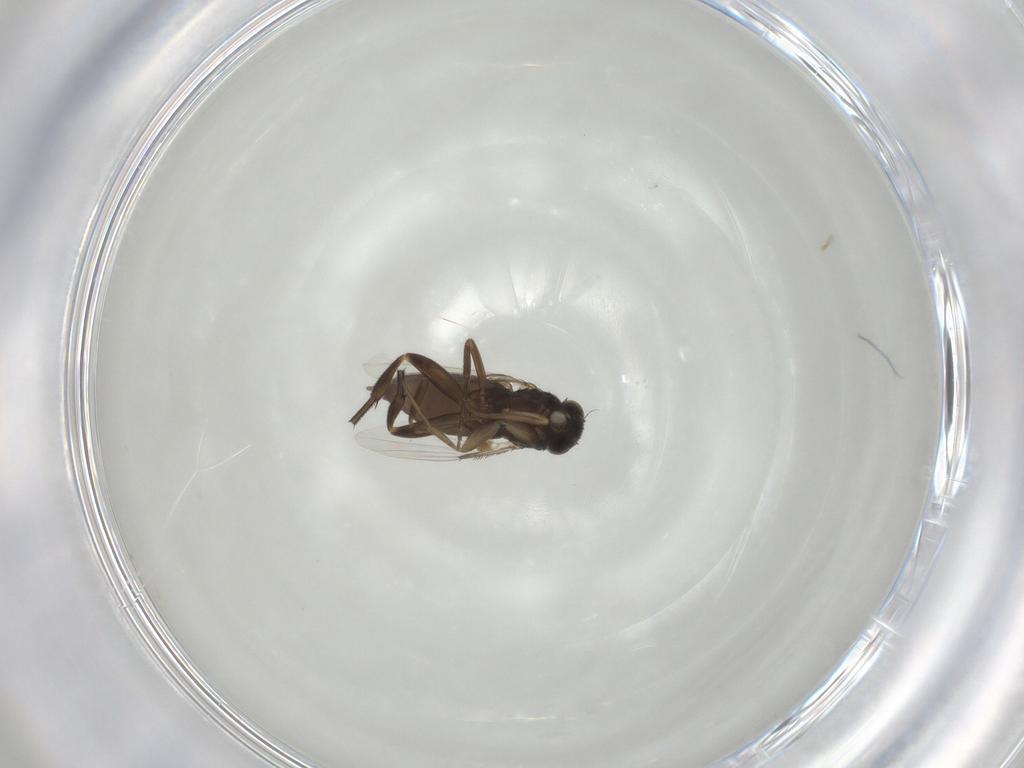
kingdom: Animalia
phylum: Arthropoda
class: Insecta
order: Diptera
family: Phoridae
